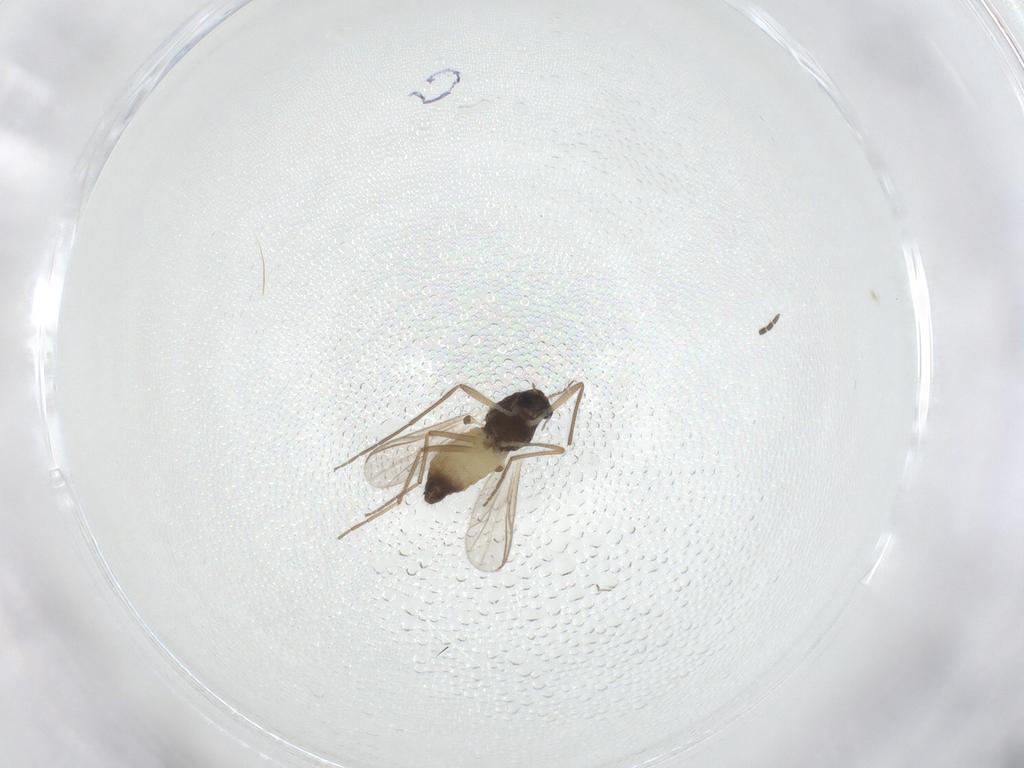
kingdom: Animalia
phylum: Arthropoda
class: Insecta
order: Diptera
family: Chironomidae
